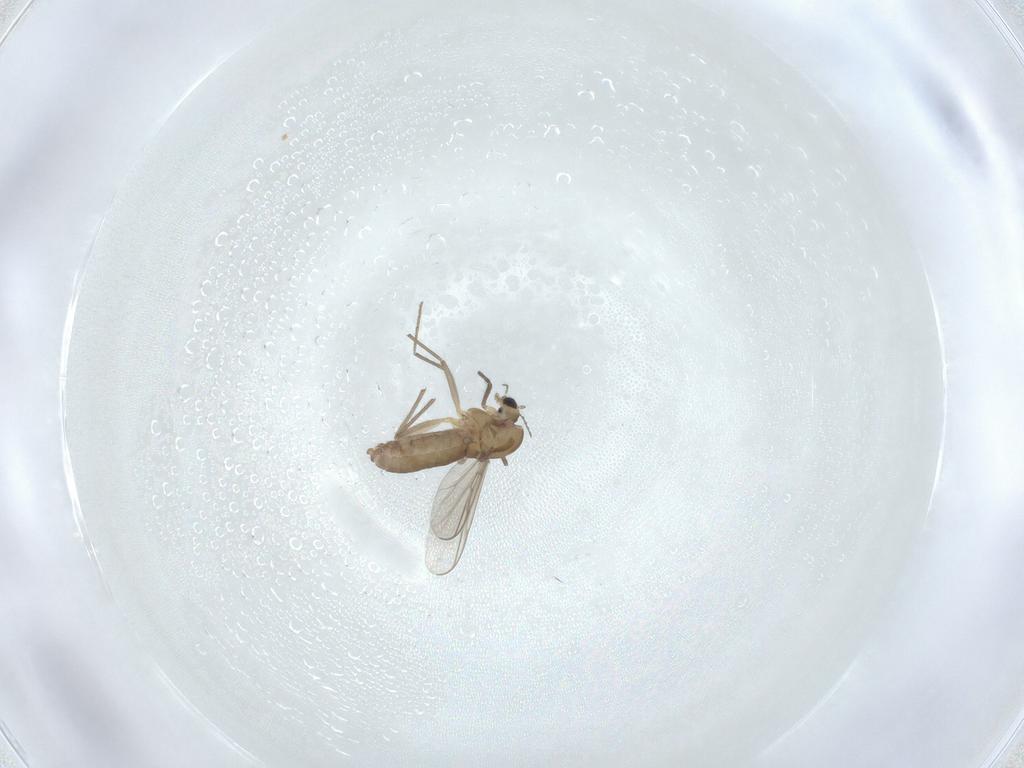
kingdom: Animalia
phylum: Arthropoda
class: Insecta
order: Diptera
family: Chironomidae
